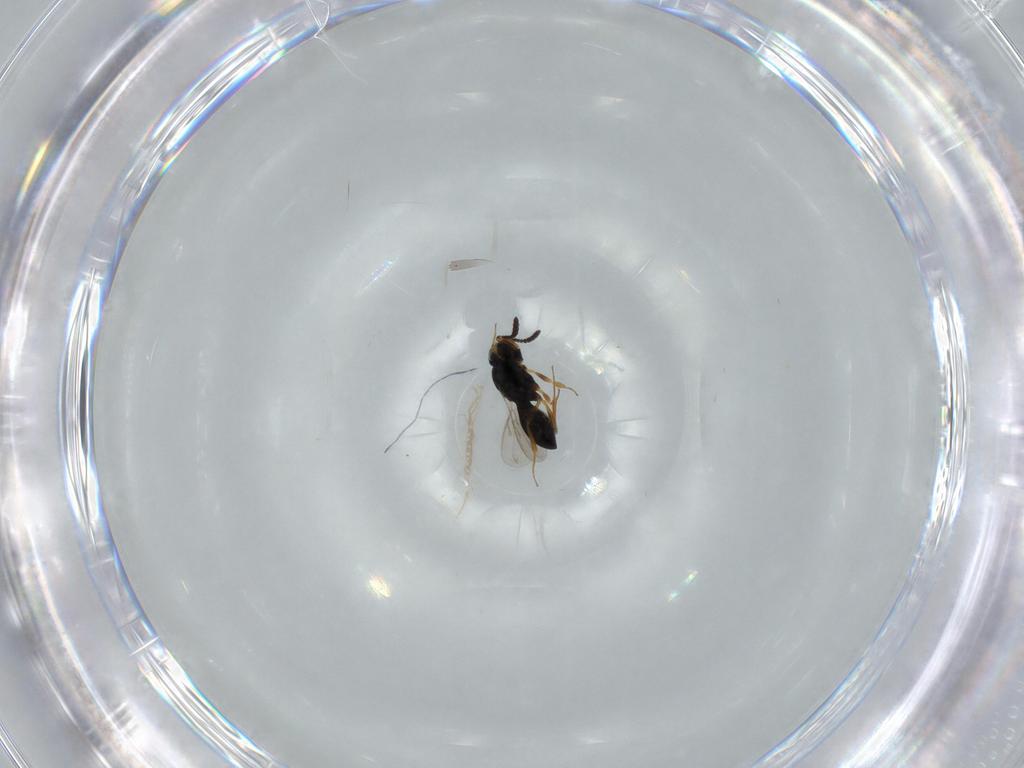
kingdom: Animalia
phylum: Arthropoda
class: Insecta
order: Hymenoptera
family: Scelionidae
